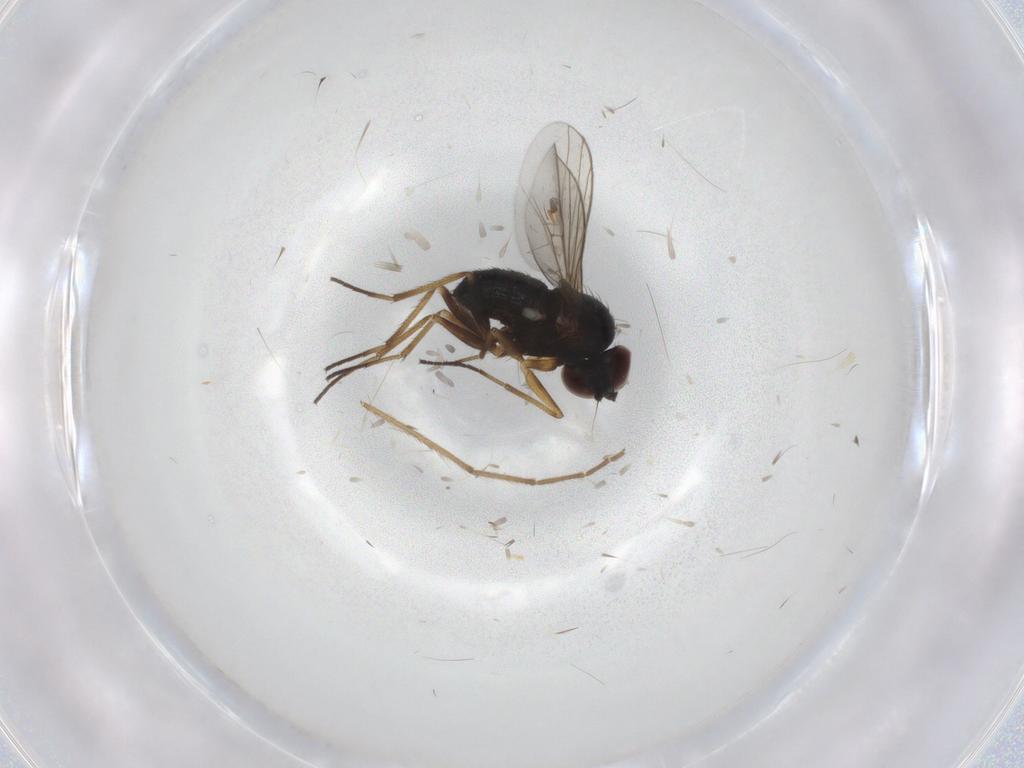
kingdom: Animalia
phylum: Arthropoda
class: Insecta
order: Diptera
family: Dolichopodidae
